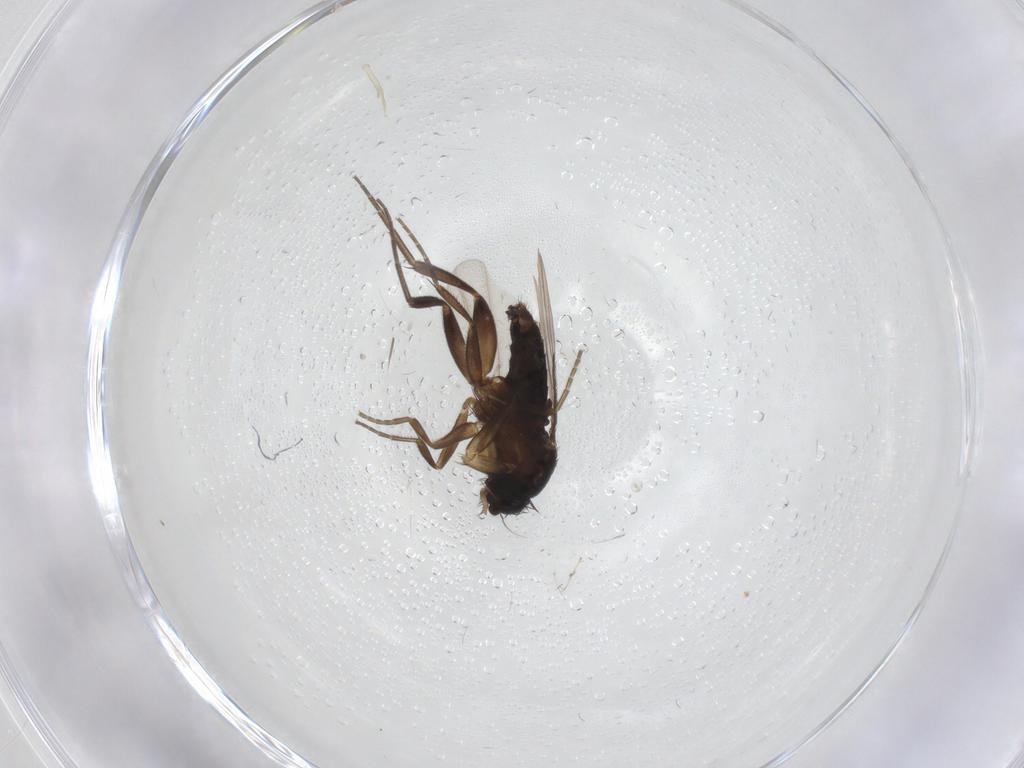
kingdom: Animalia
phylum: Arthropoda
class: Insecta
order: Diptera
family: Phoridae
